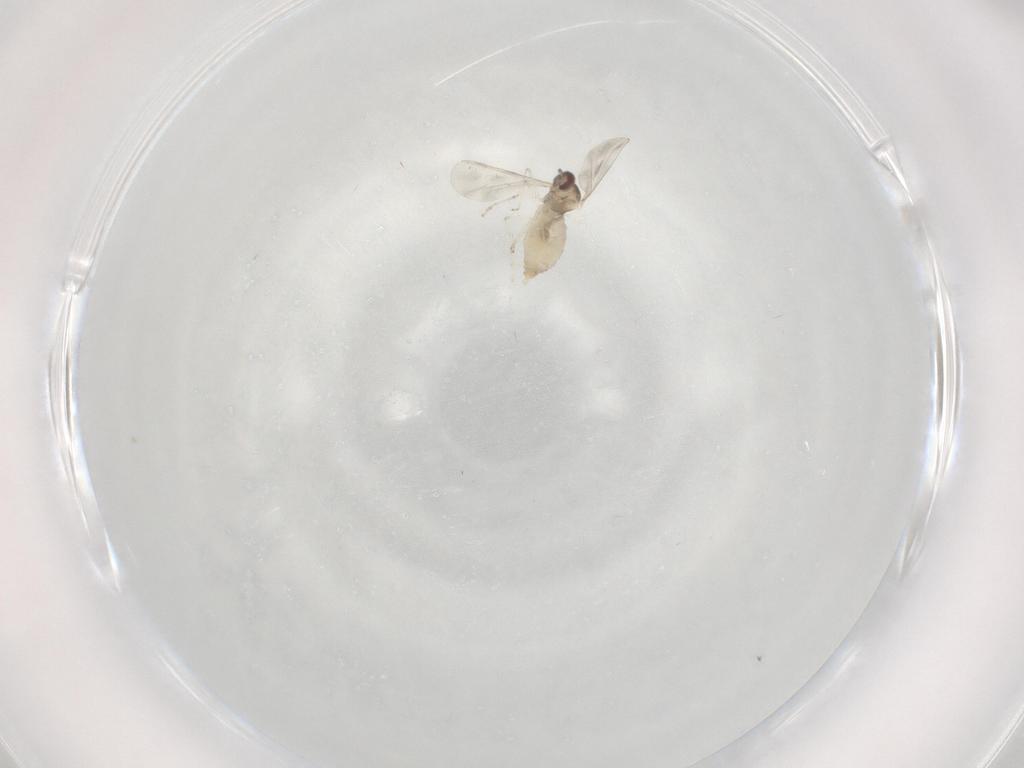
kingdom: Animalia
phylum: Arthropoda
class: Insecta
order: Diptera
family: Cecidomyiidae
